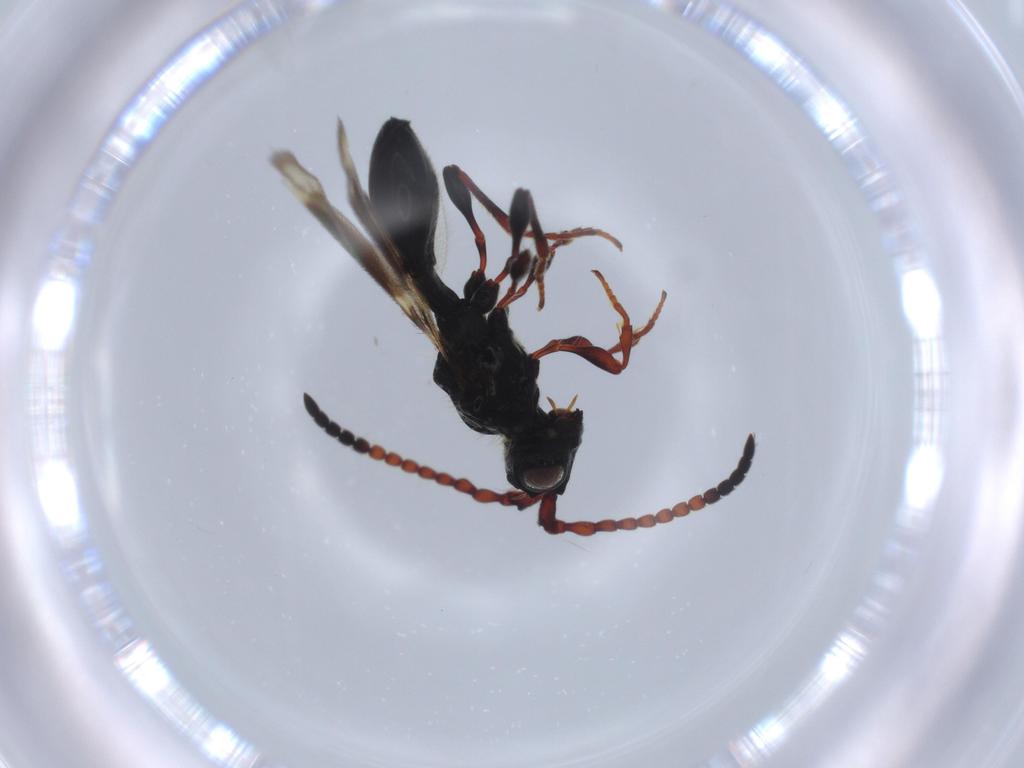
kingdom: Animalia
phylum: Arthropoda
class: Insecta
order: Hymenoptera
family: Diapriidae
